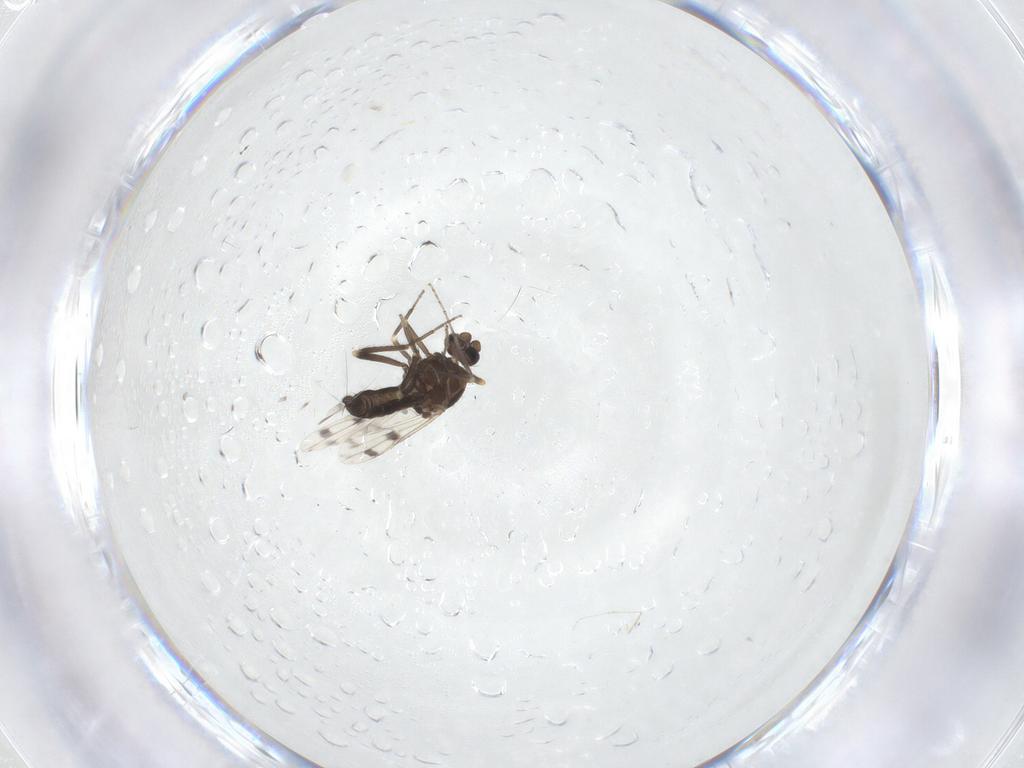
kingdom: Animalia
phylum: Arthropoda
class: Insecta
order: Diptera
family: Ceratopogonidae
